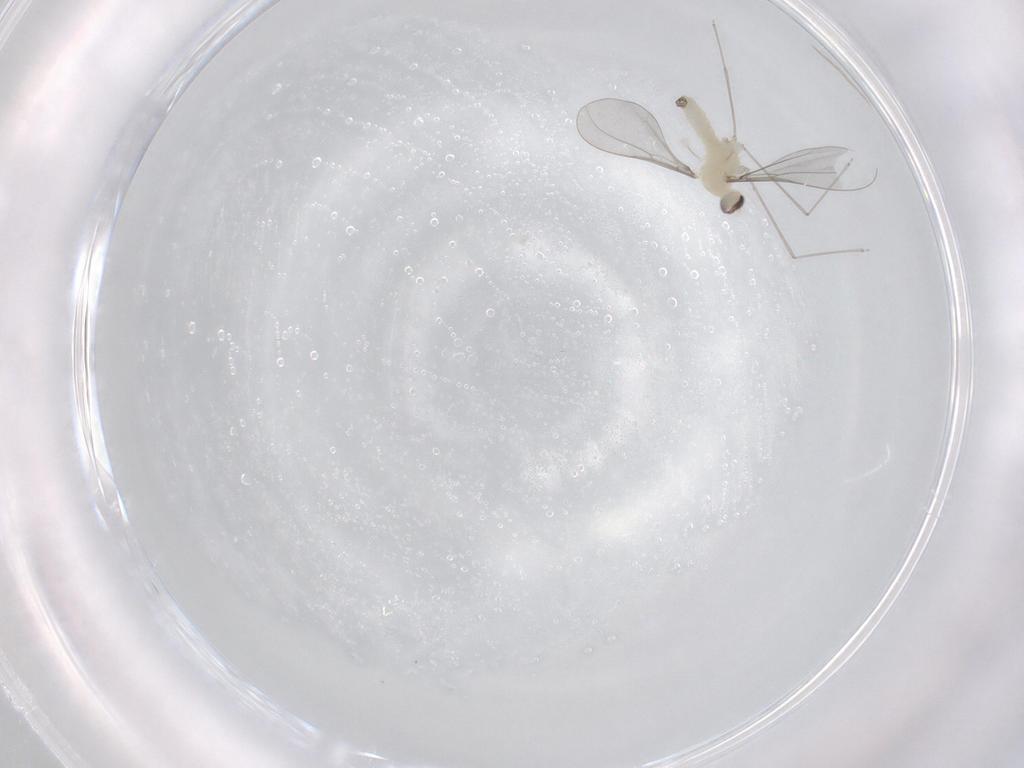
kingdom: Animalia
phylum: Arthropoda
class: Insecta
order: Diptera
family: Cecidomyiidae
